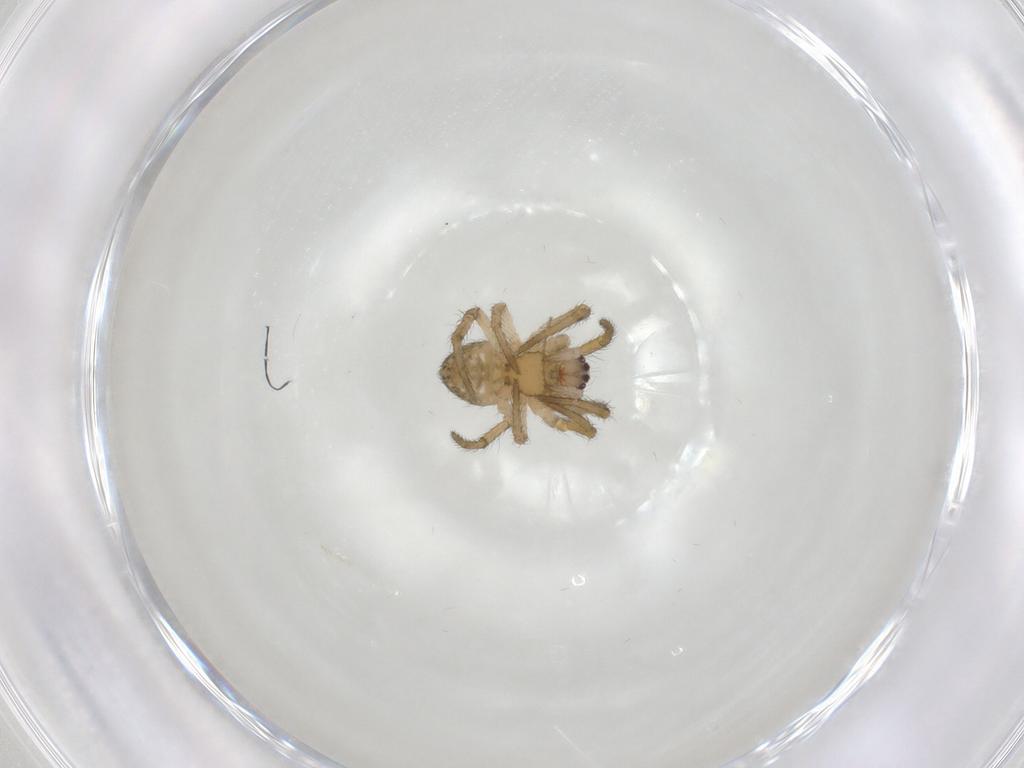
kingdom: Animalia
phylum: Arthropoda
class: Arachnida
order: Araneae
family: Araneidae
